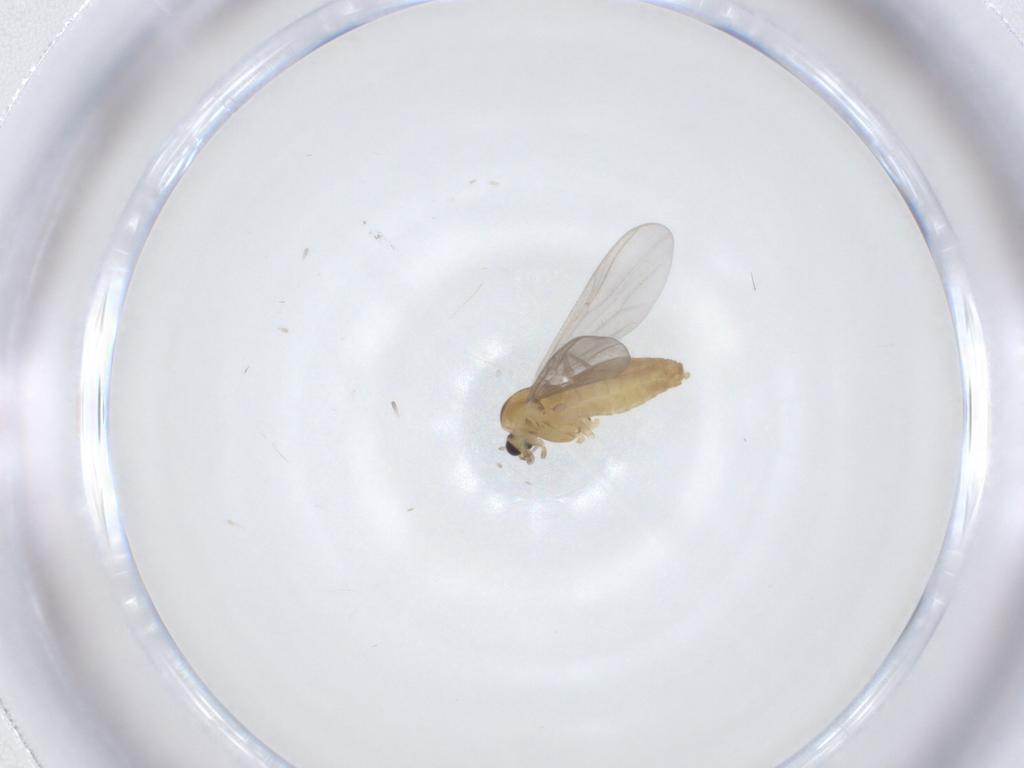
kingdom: Animalia
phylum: Arthropoda
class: Insecta
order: Diptera
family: Chironomidae
